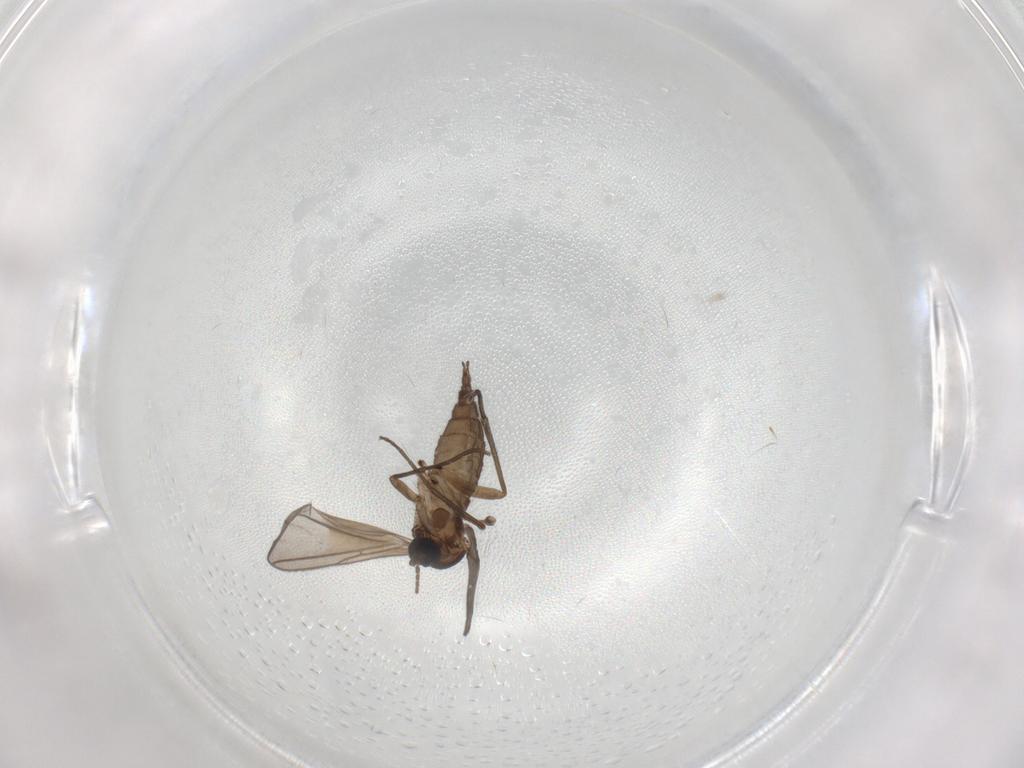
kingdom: Animalia
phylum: Arthropoda
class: Insecta
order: Diptera
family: Sciaridae
